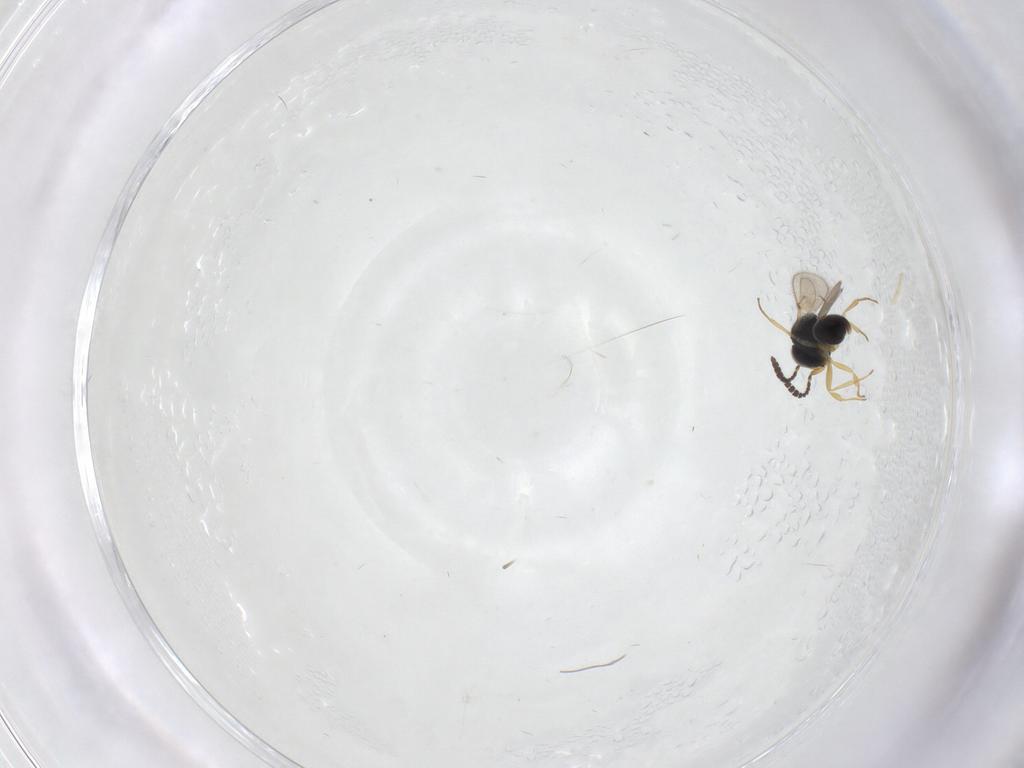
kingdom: Animalia
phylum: Arthropoda
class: Insecta
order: Hymenoptera
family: Scelionidae
